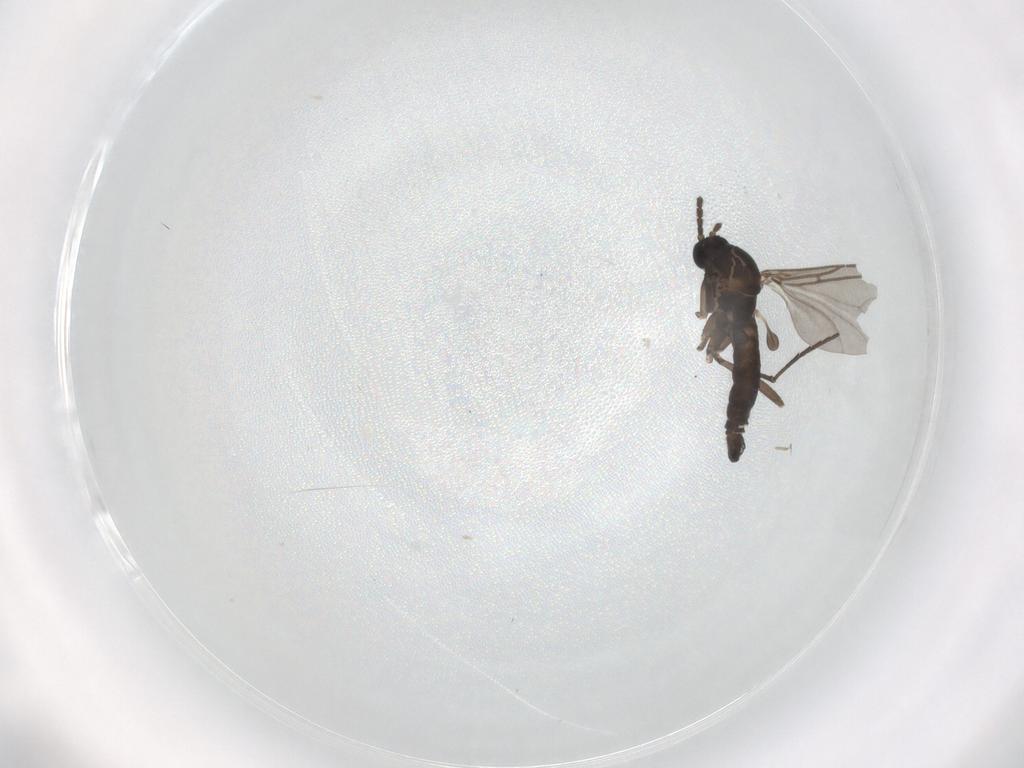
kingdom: Animalia
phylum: Arthropoda
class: Insecta
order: Diptera
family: Sciaridae
